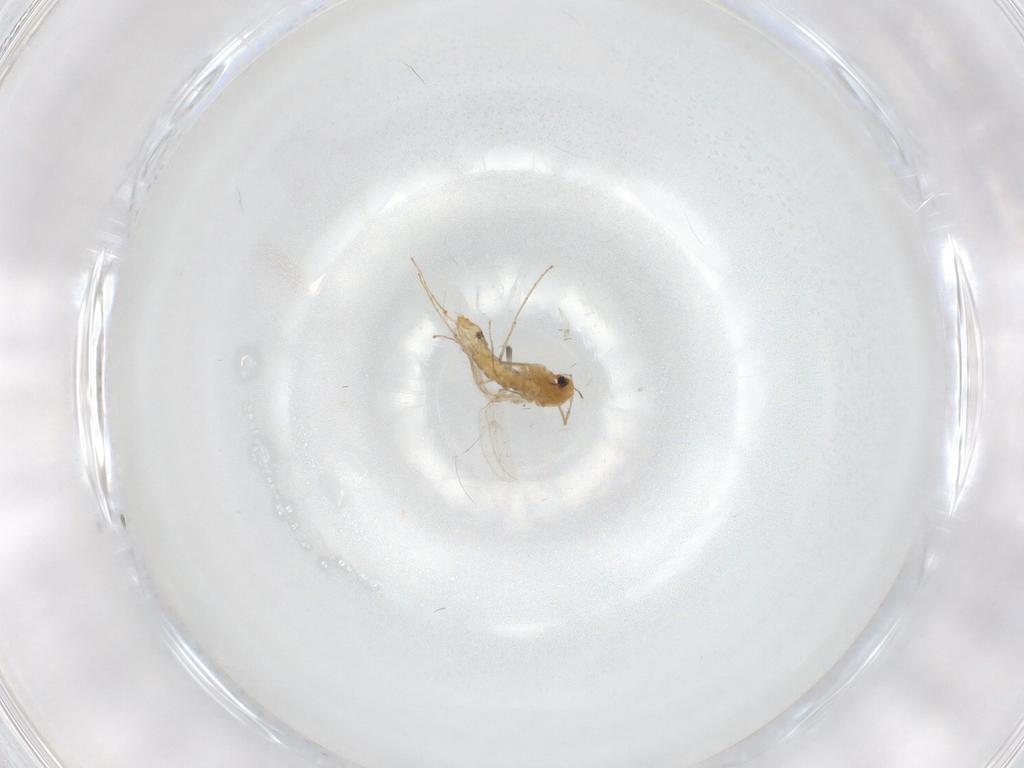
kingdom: Animalia
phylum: Arthropoda
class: Insecta
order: Diptera
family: Chironomidae
